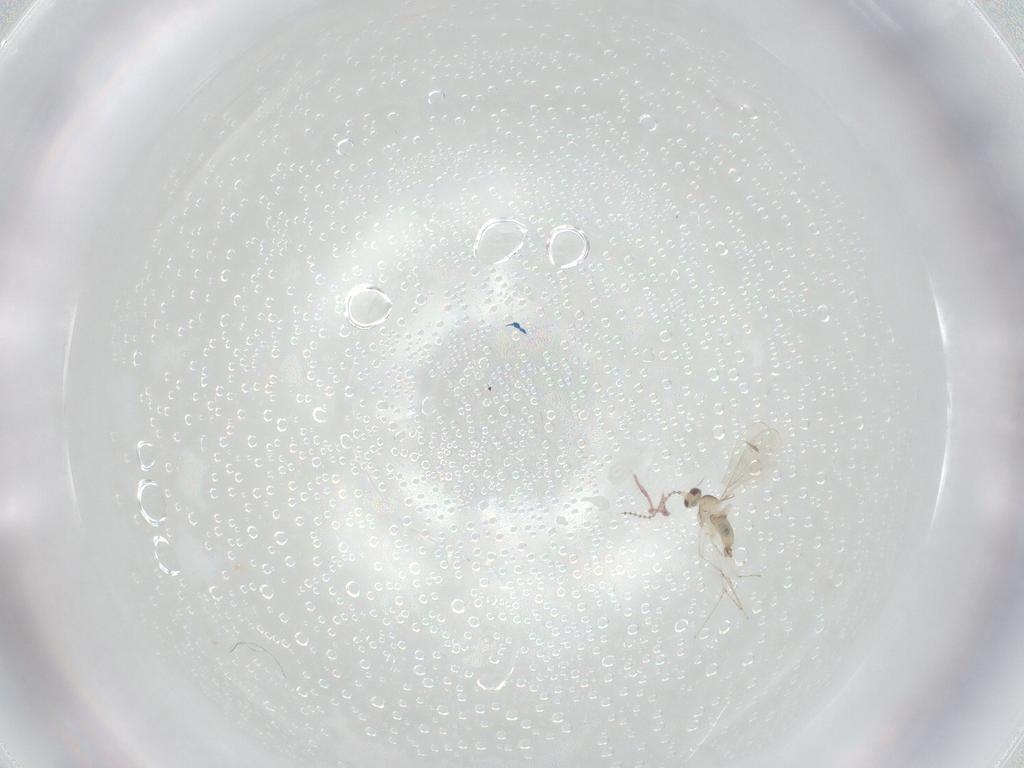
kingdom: Animalia
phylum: Arthropoda
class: Insecta
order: Diptera
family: Cecidomyiidae
